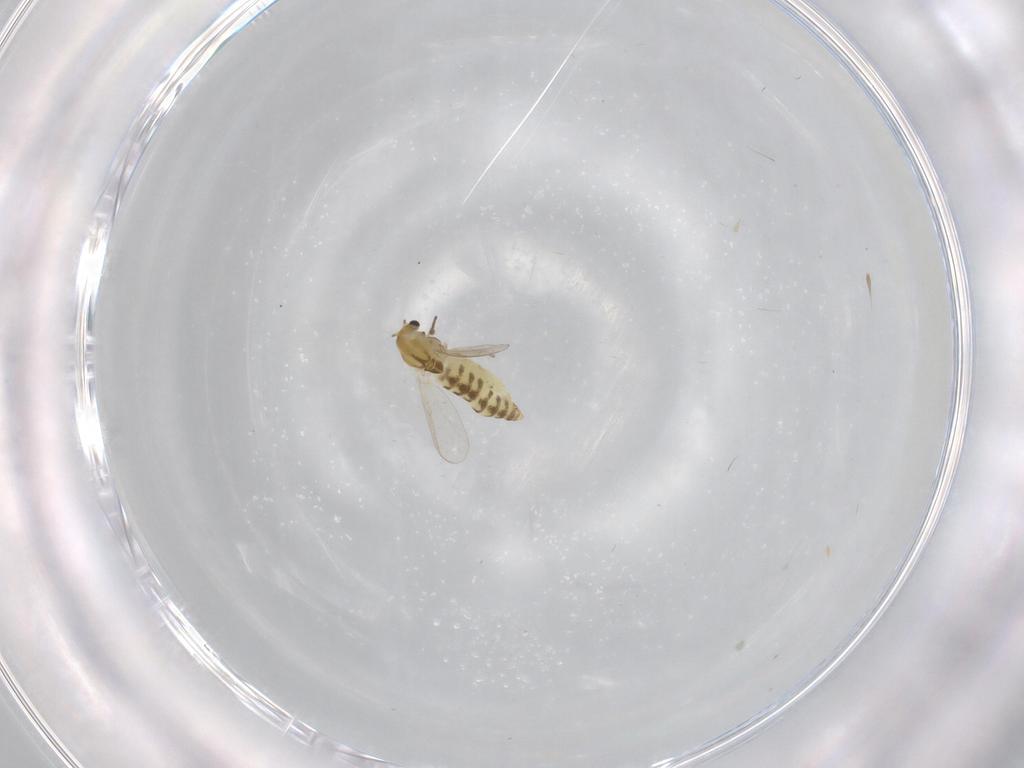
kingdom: Animalia
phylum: Arthropoda
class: Insecta
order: Diptera
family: Chironomidae
